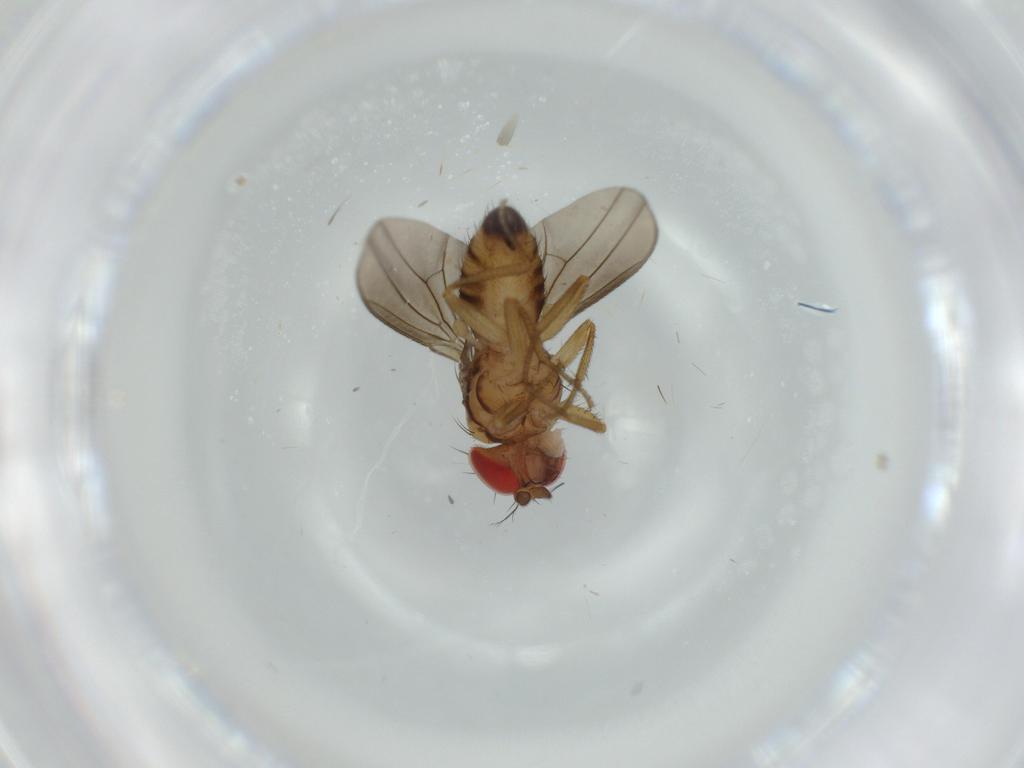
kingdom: Animalia
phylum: Arthropoda
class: Insecta
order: Diptera
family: Drosophilidae
